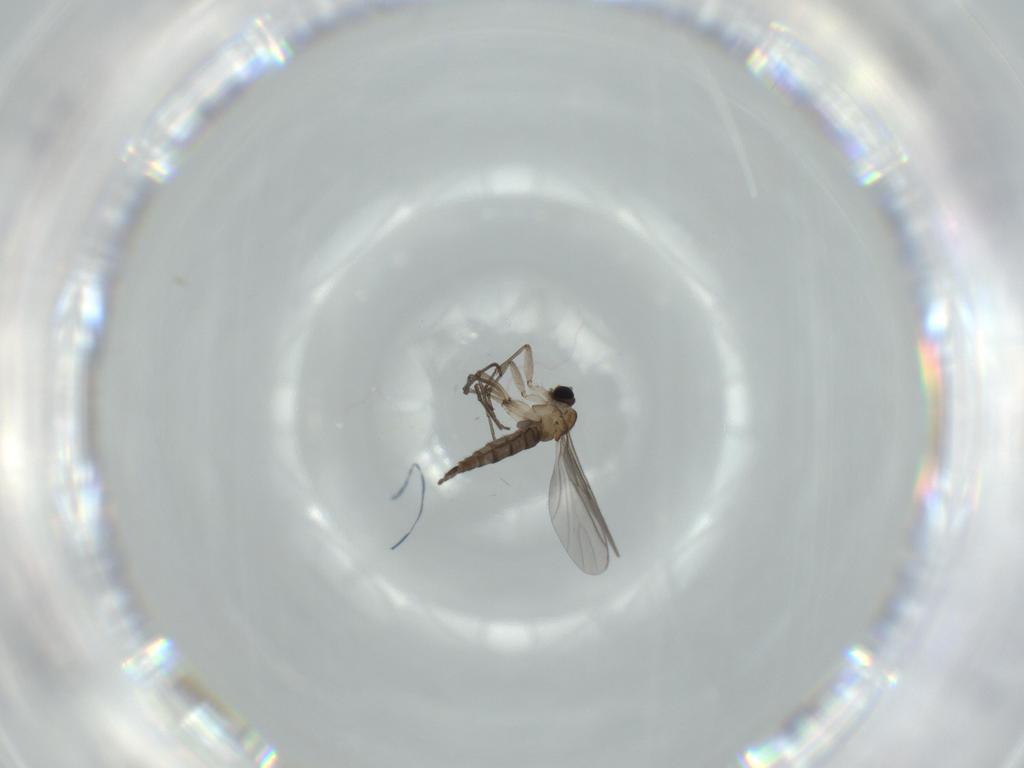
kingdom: Animalia
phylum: Arthropoda
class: Insecta
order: Diptera
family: Sciaridae
